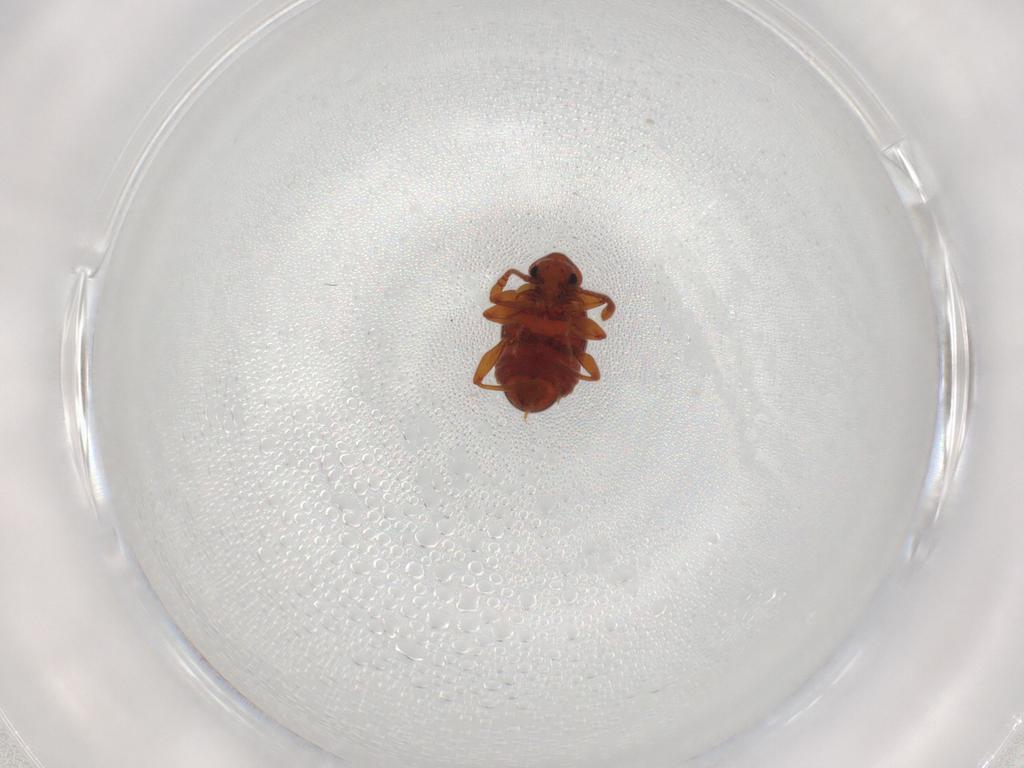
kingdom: Animalia
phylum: Arthropoda
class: Insecta
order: Coleoptera
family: Staphylinidae
